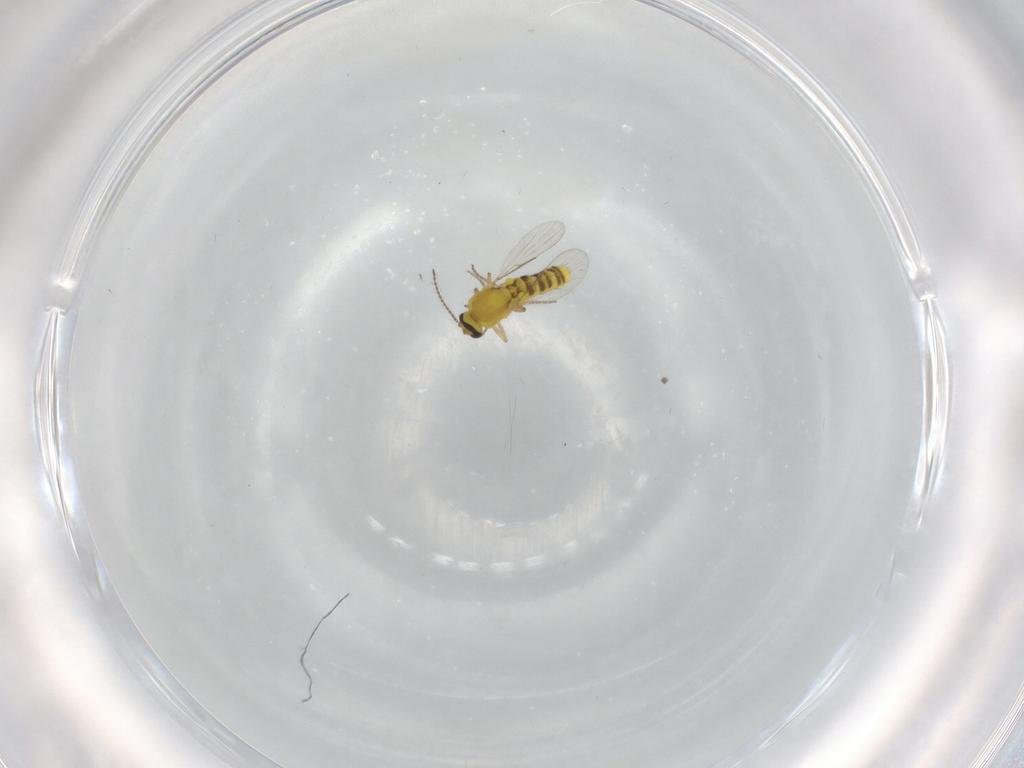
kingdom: Animalia
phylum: Arthropoda
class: Insecta
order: Diptera
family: Ceratopogonidae
